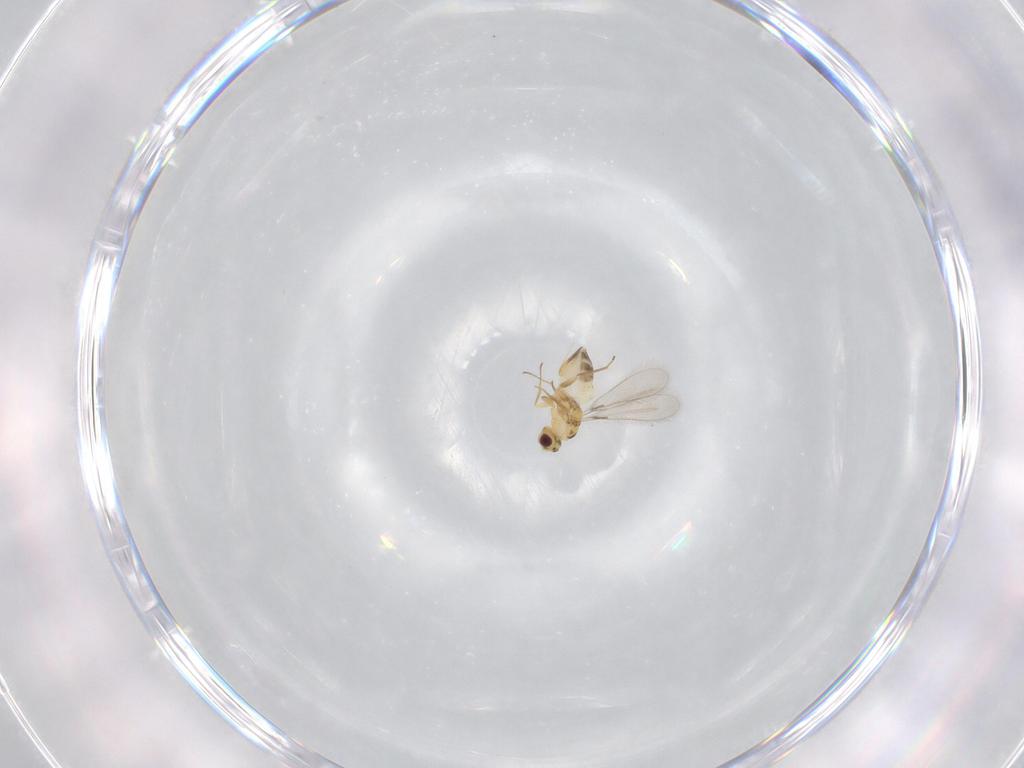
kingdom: Animalia
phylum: Arthropoda
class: Insecta
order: Hymenoptera
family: Mymaridae
